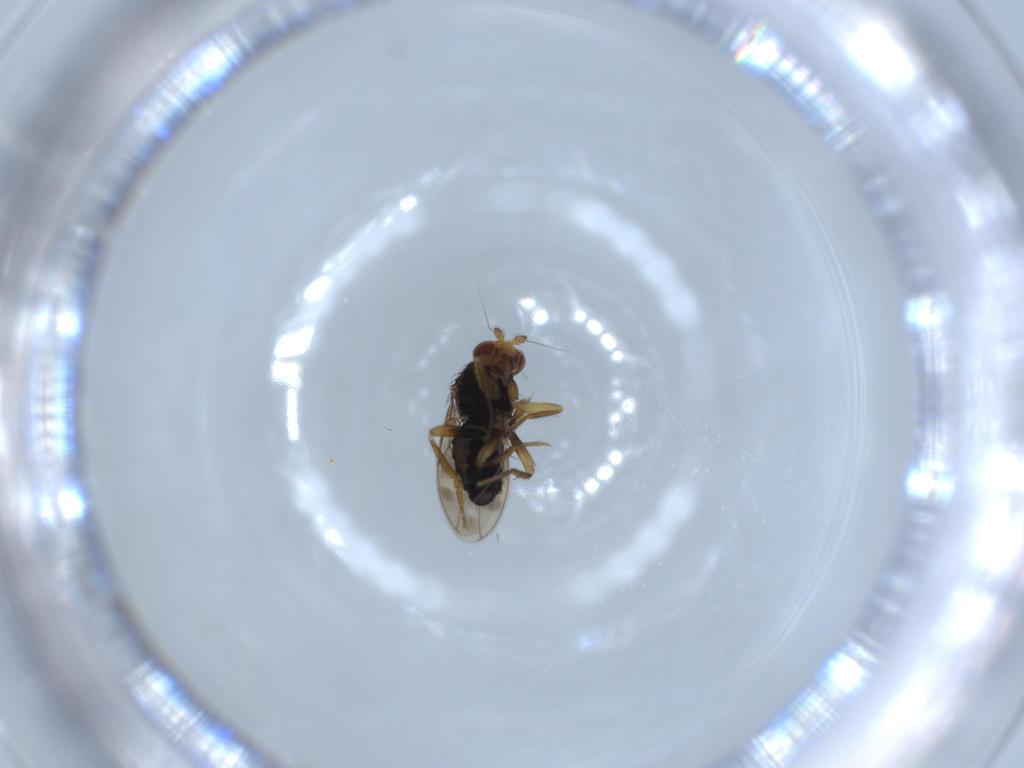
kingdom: Animalia
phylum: Arthropoda
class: Insecta
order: Diptera
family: Sphaeroceridae
